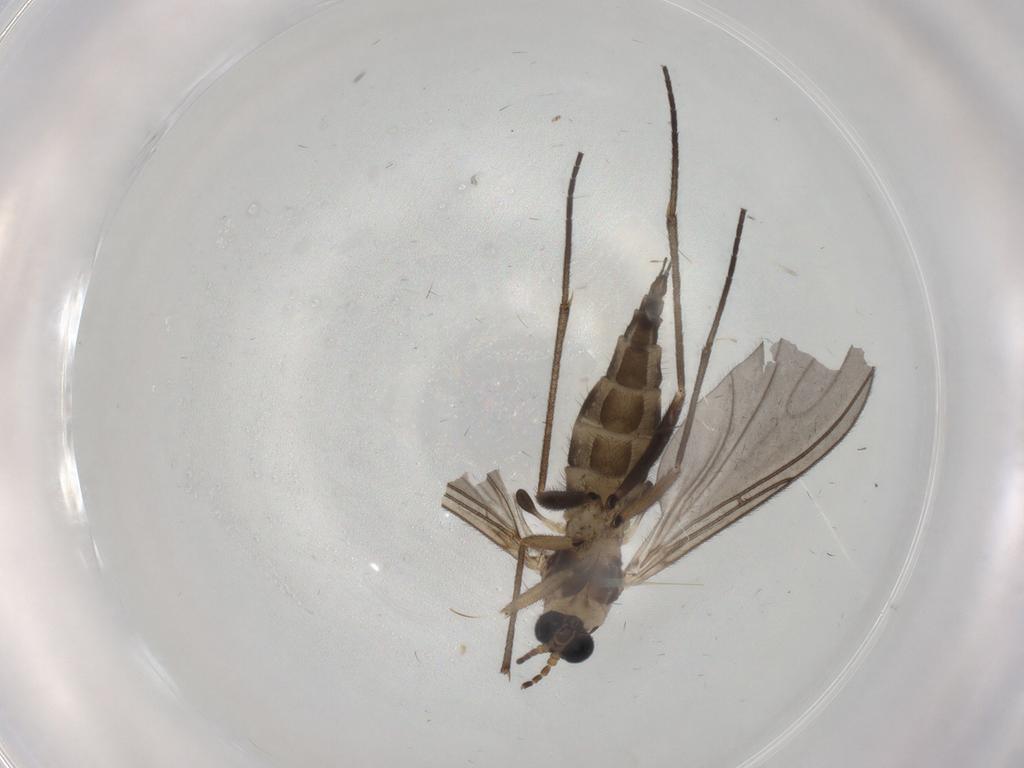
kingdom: Animalia
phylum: Arthropoda
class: Insecta
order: Diptera
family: Sciaridae
